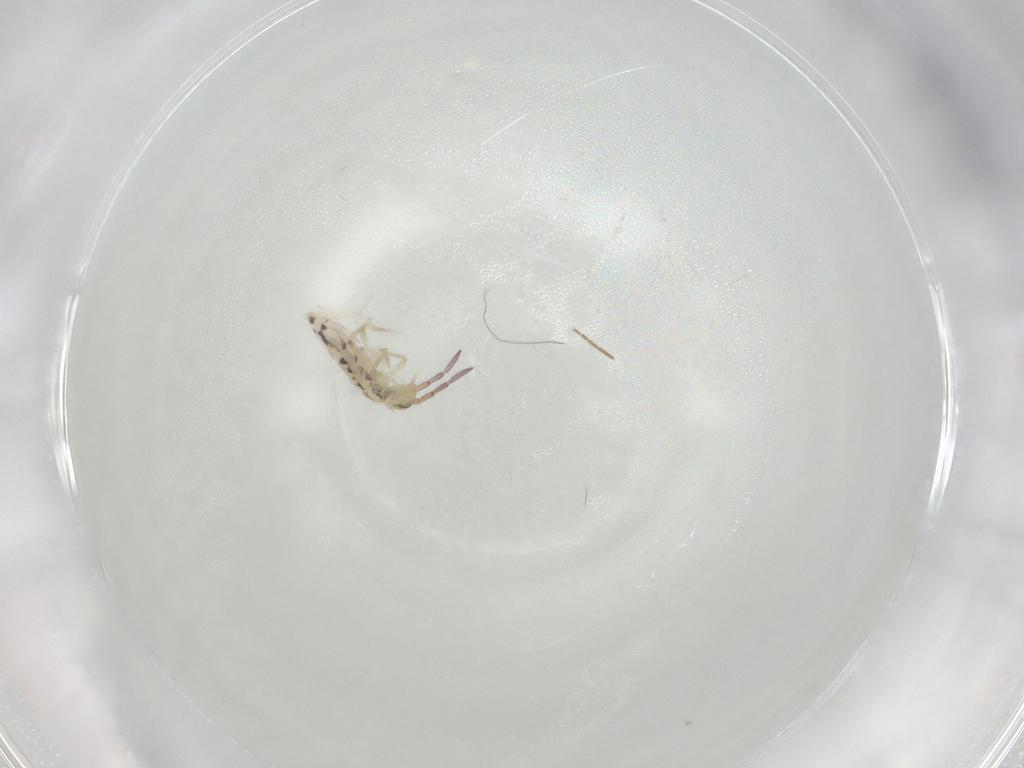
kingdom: Animalia
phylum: Arthropoda
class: Collembola
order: Entomobryomorpha
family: Entomobryidae
